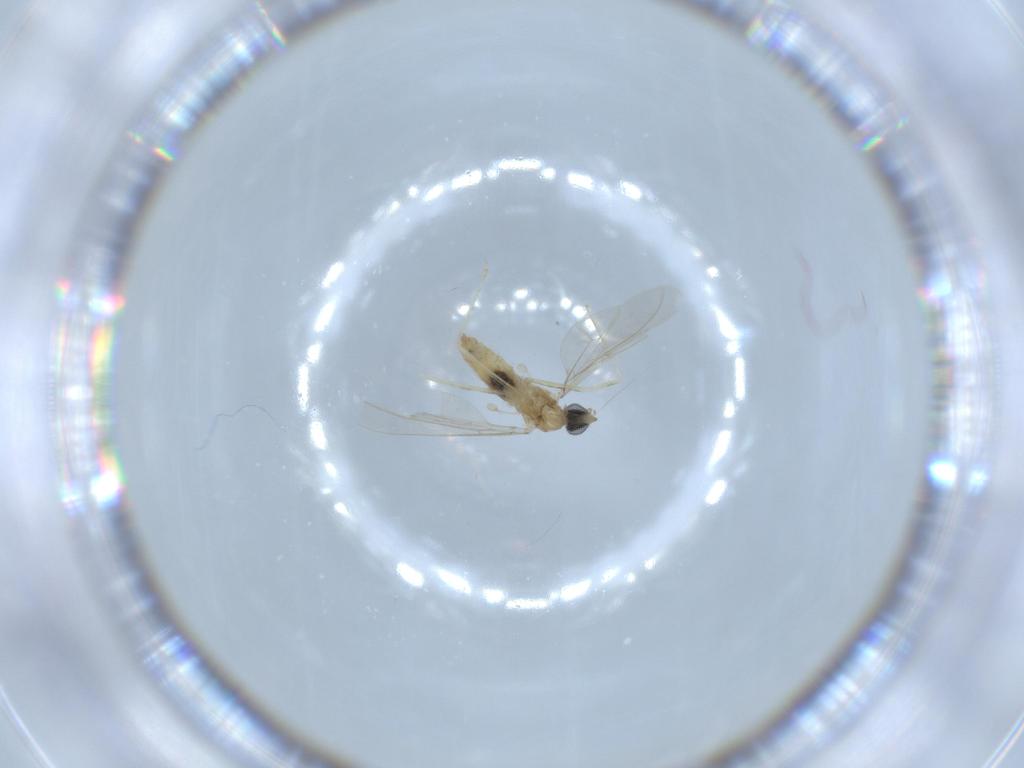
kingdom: Animalia
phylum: Arthropoda
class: Insecta
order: Diptera
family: Cecidomyiidae
